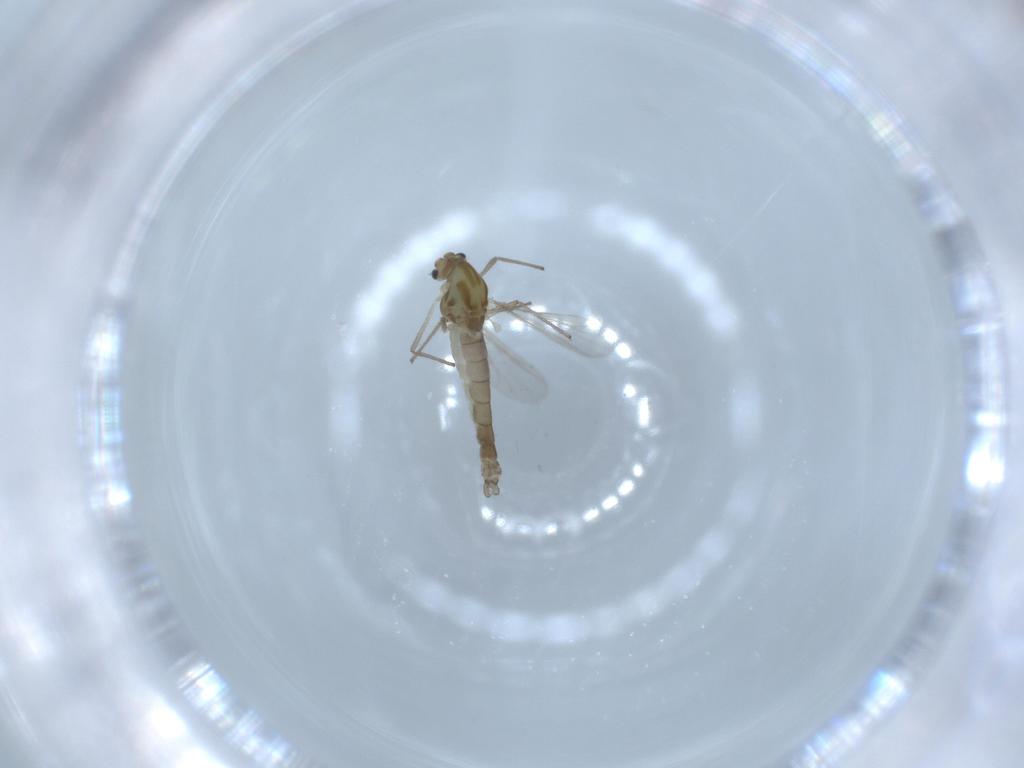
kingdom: Animalia
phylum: Arthropoda
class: Insecta
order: Diptera
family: Chironomidae
